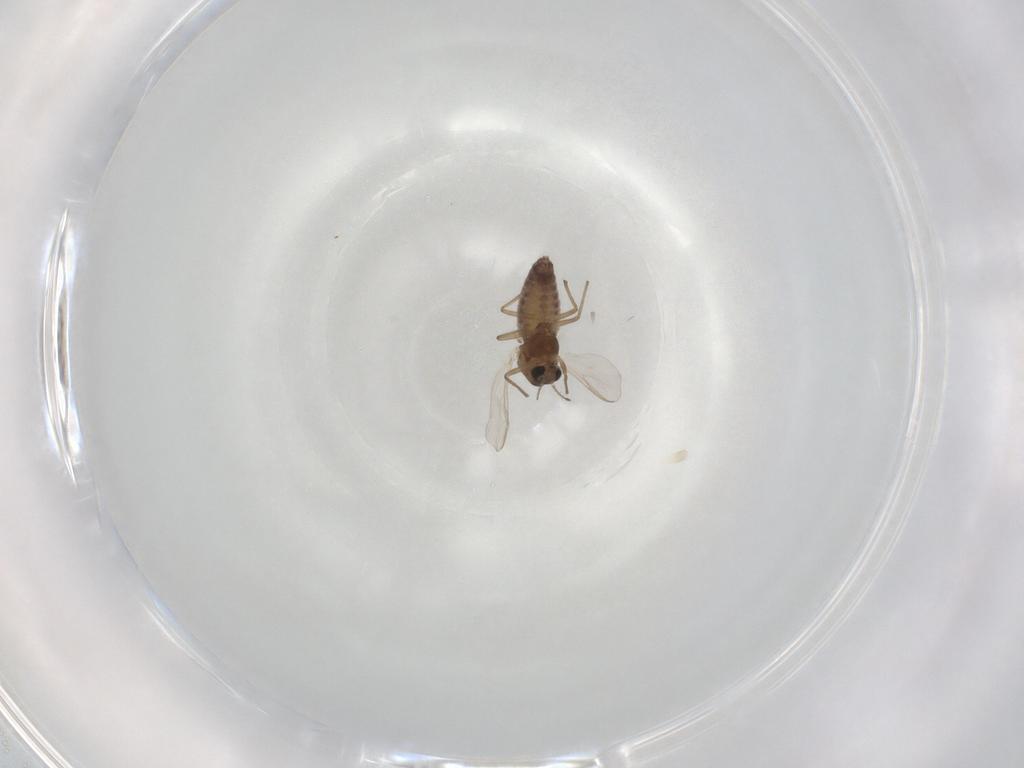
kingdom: Animalia
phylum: Arthropoda
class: Insecta
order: Diptera
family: Chironomidae
